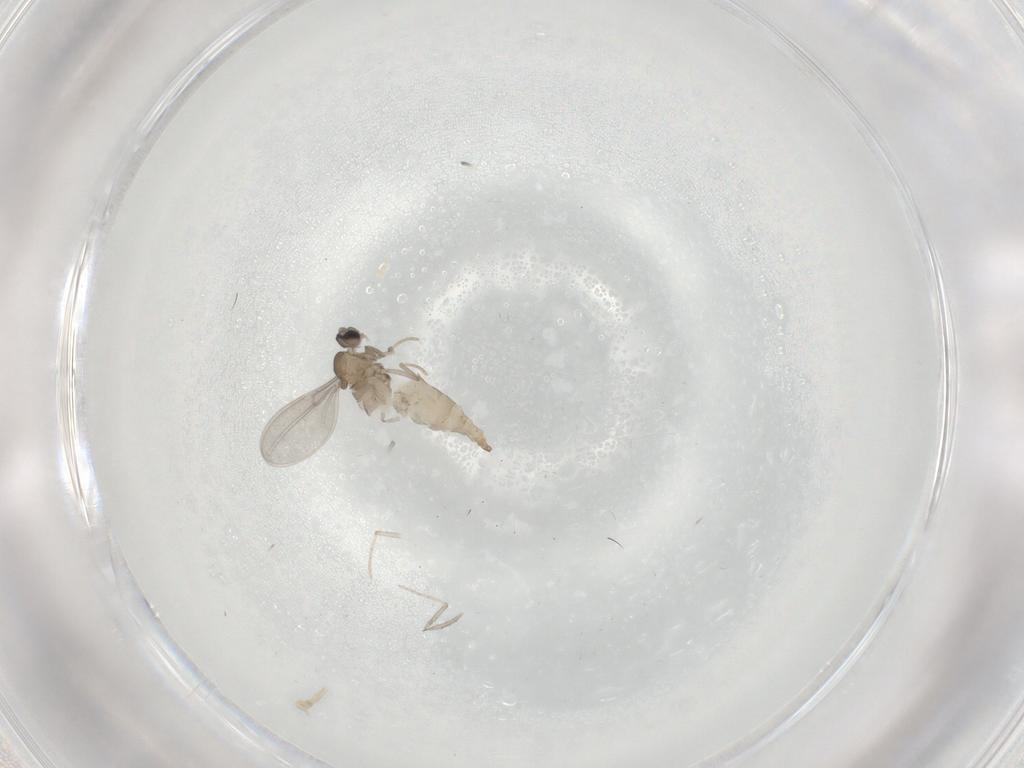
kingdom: Animalia
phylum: Arthropoda
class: Insecta
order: Diptera
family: Cecidomyiidae
